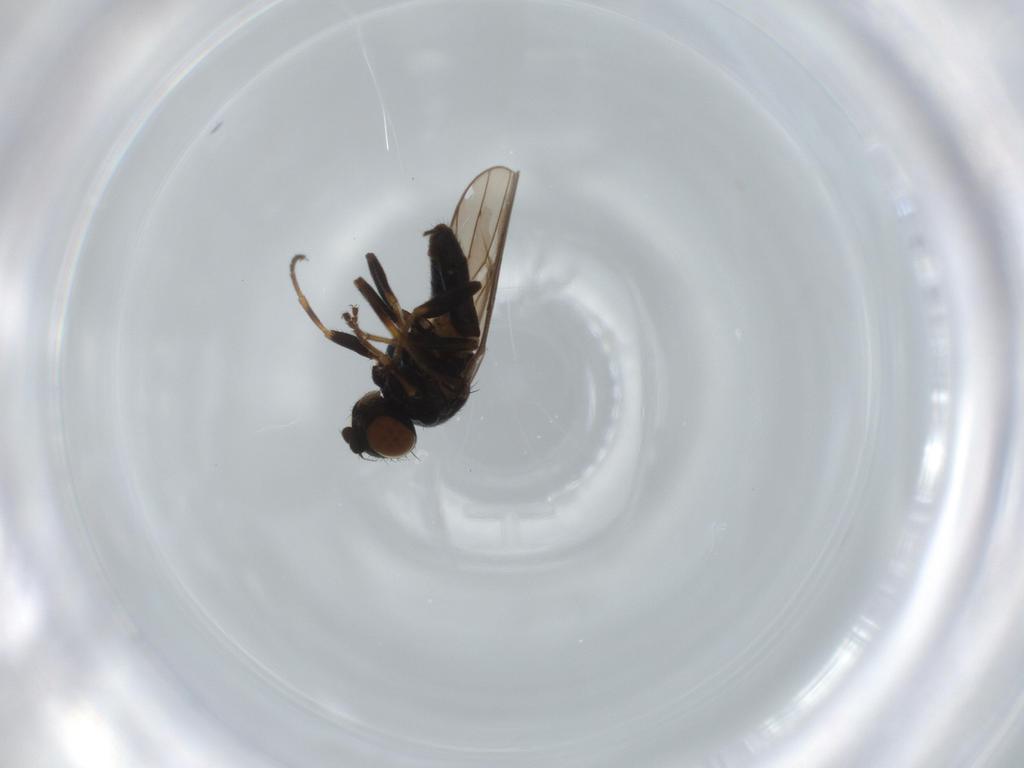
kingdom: Animalia
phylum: Arthropoda
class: Insecta
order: Diptera
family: Chloropidae
